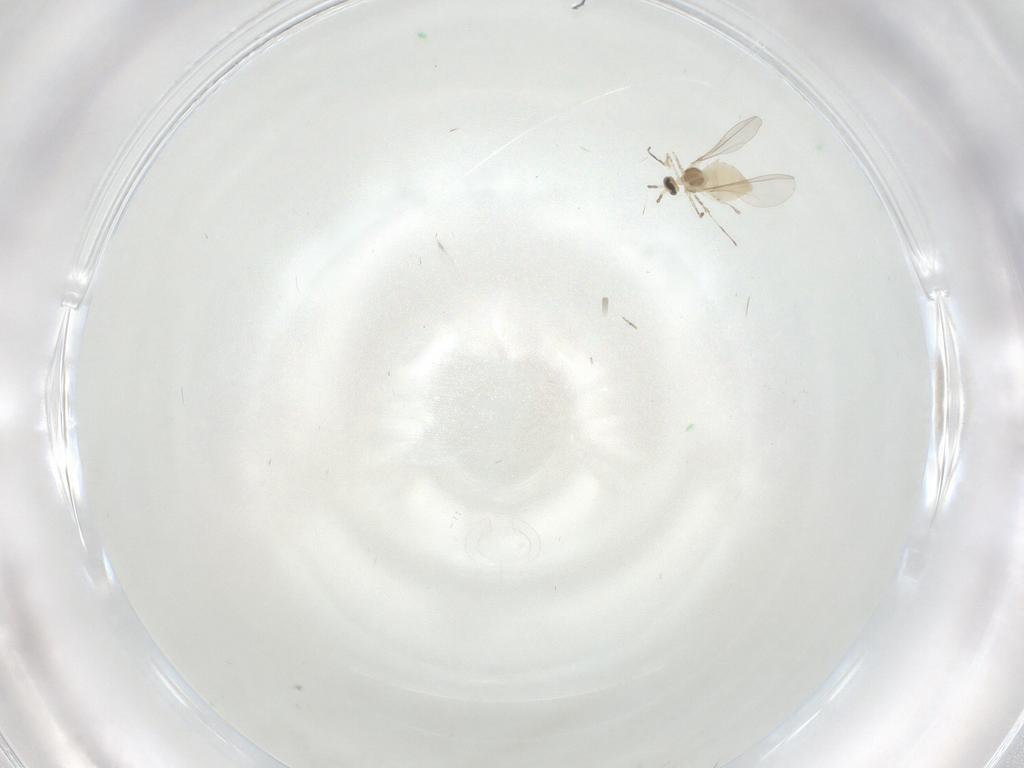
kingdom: Animalia
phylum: Arthropoda
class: Insecta
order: Diptera
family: Cecidomyiidae
